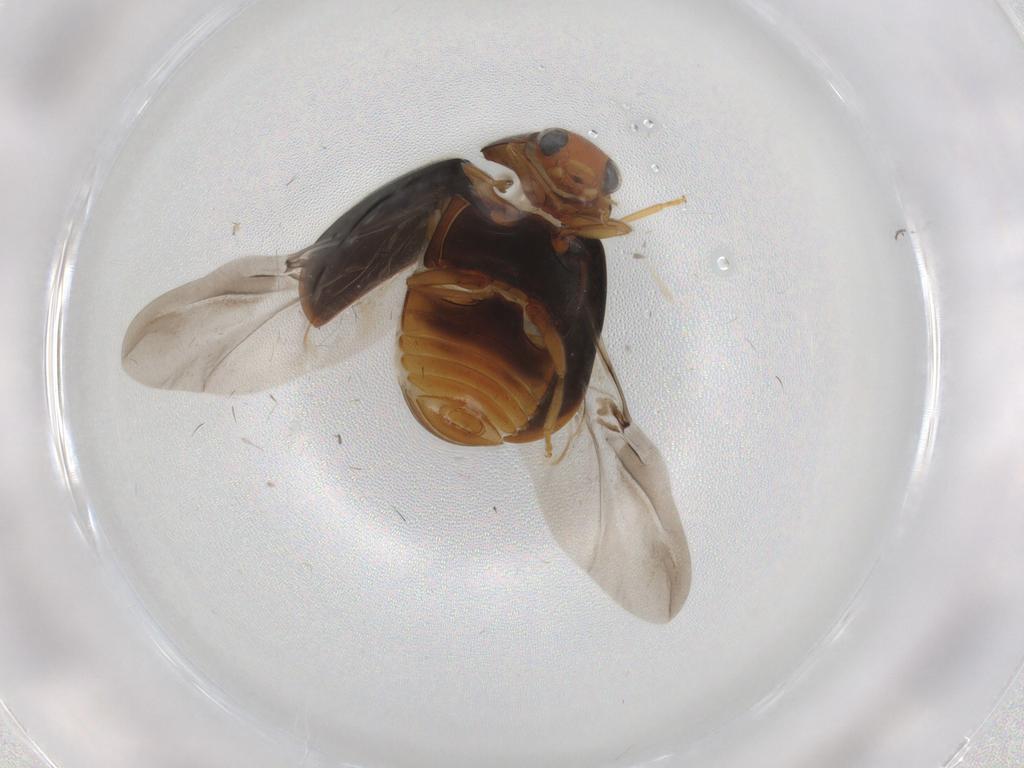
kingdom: Animalia
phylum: Arthropoda
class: Insecta
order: Coleoptera
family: Coccinellidae
